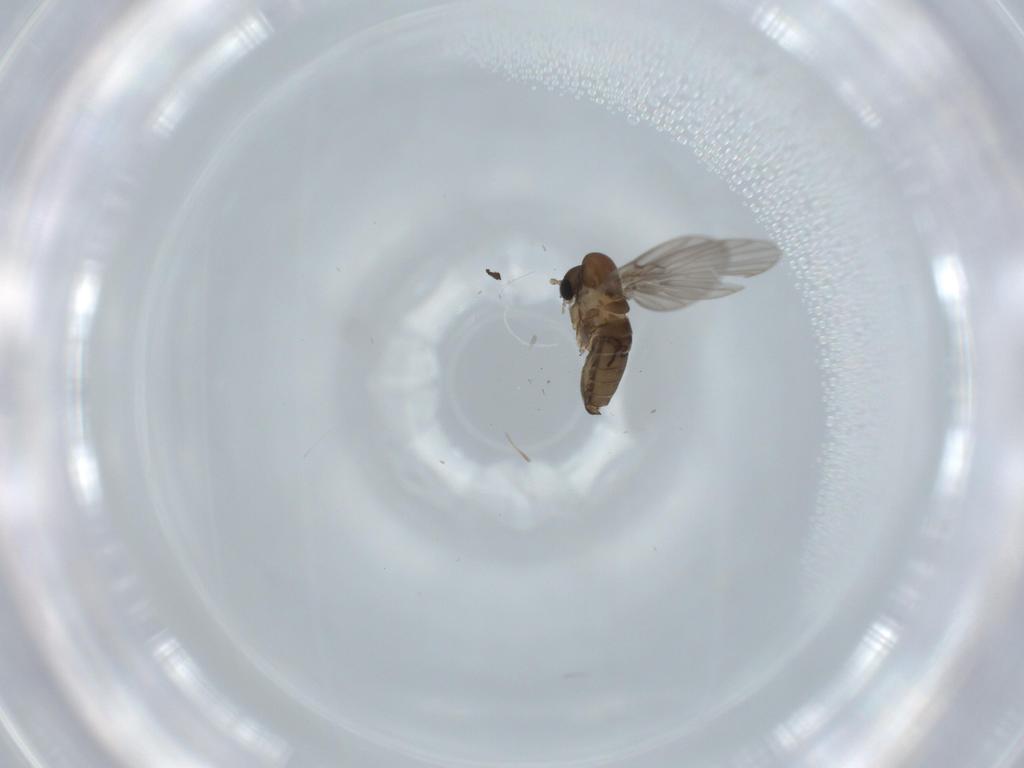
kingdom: Animalia
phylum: Arthropoda
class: Insecta
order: Diptera
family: Psychodidae
